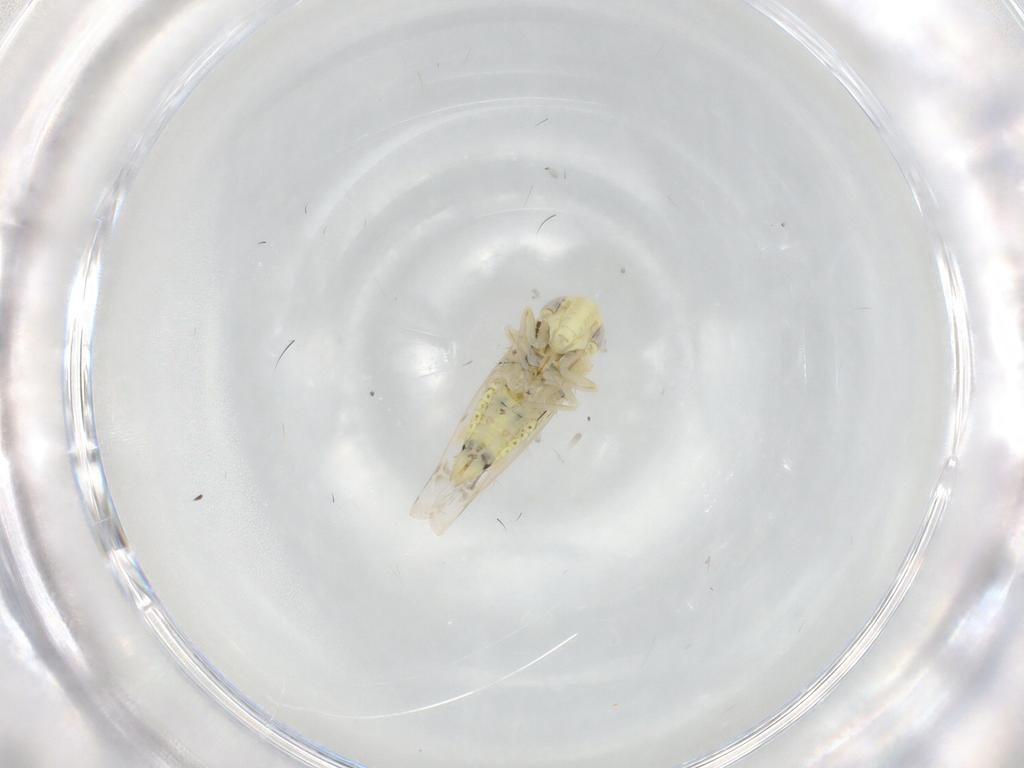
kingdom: Animalia
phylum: Arthropoda
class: Insecta
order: Hemiptera
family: Cicadellidae
